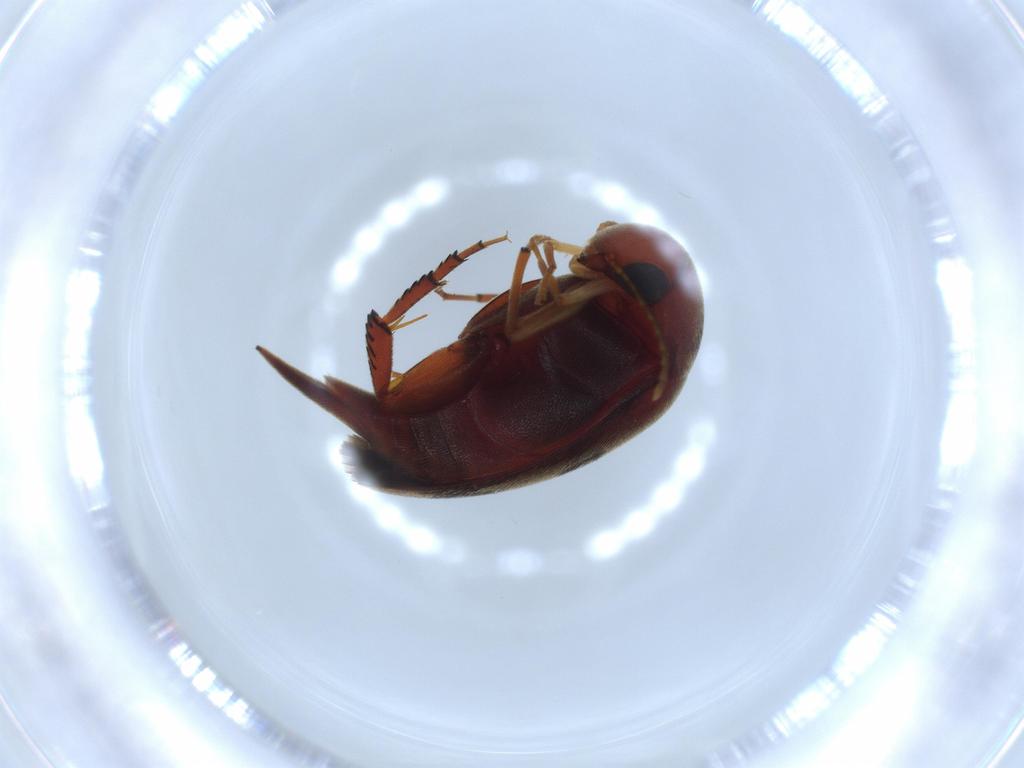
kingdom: Animalia
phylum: Arthropoda
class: Insecta
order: Coleoptera
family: Chrysomelidae
